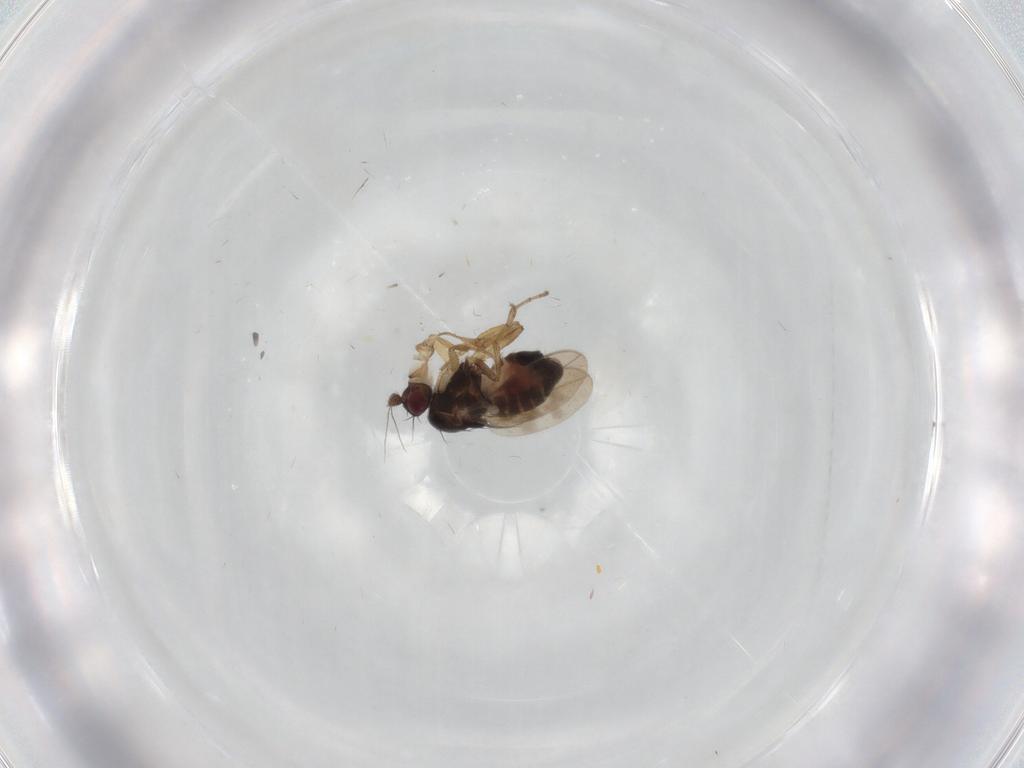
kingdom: Animalia
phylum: Arthropoda
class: Insecta
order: Diptera
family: Sphaeroceridae
